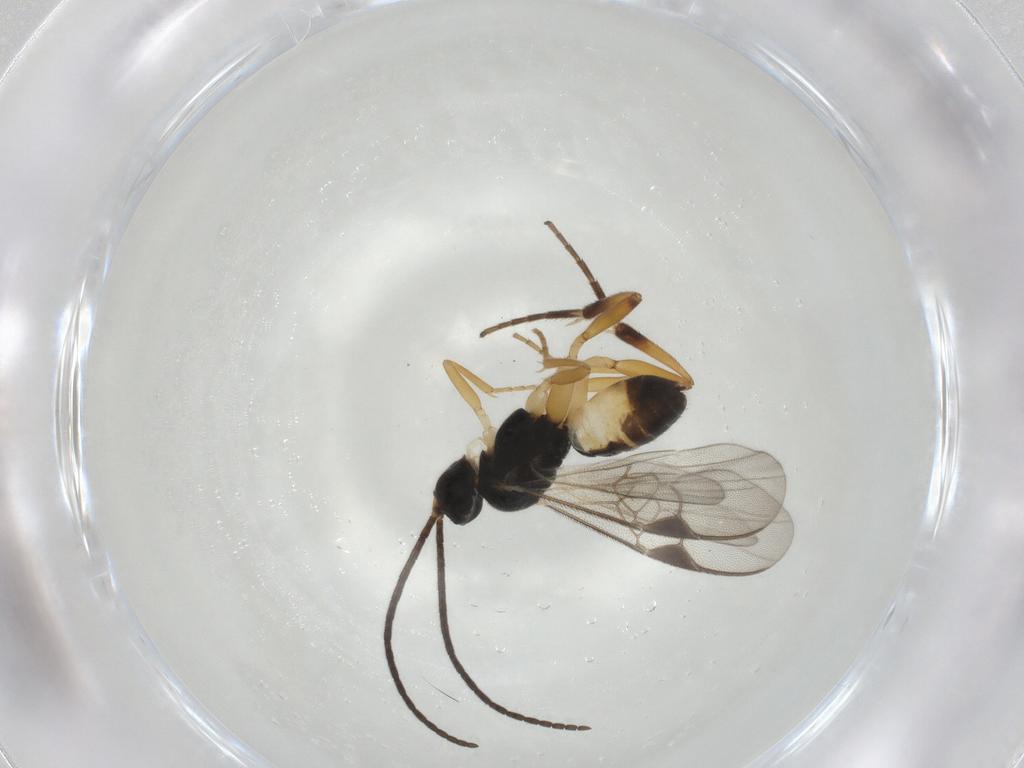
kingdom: Animalia
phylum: Arthropoda
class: Insecta
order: Hymenoptera
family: Braconidae
